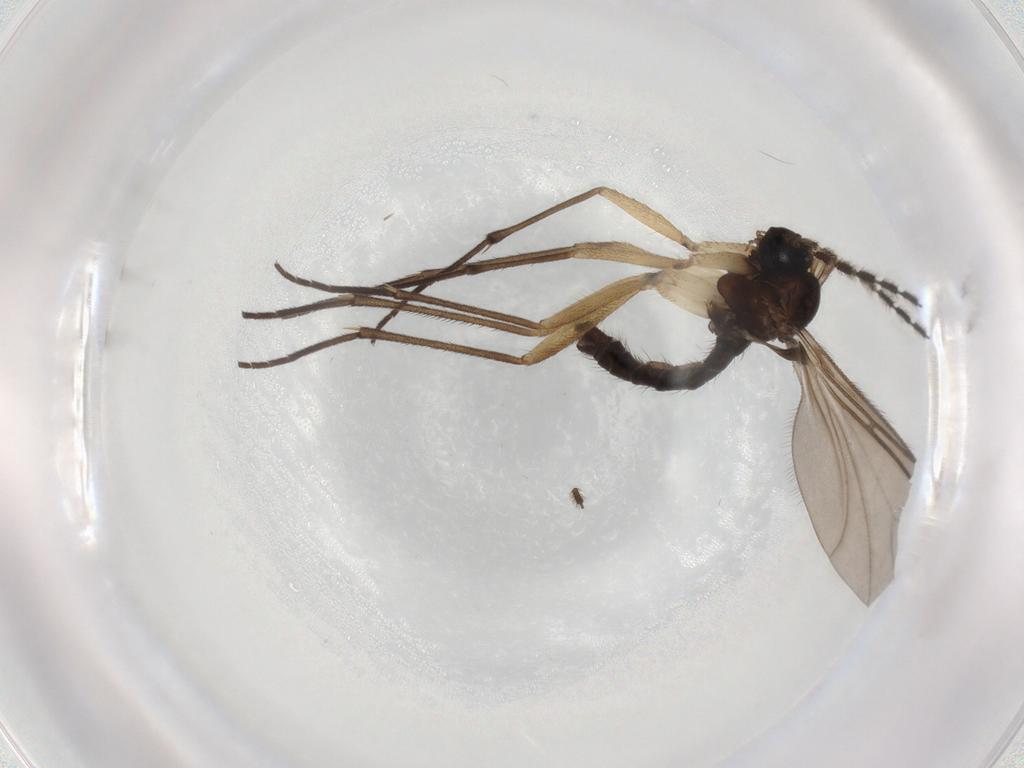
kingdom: Animalia
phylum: Arthropoda
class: Insecta
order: Diptera
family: Sciaridae
